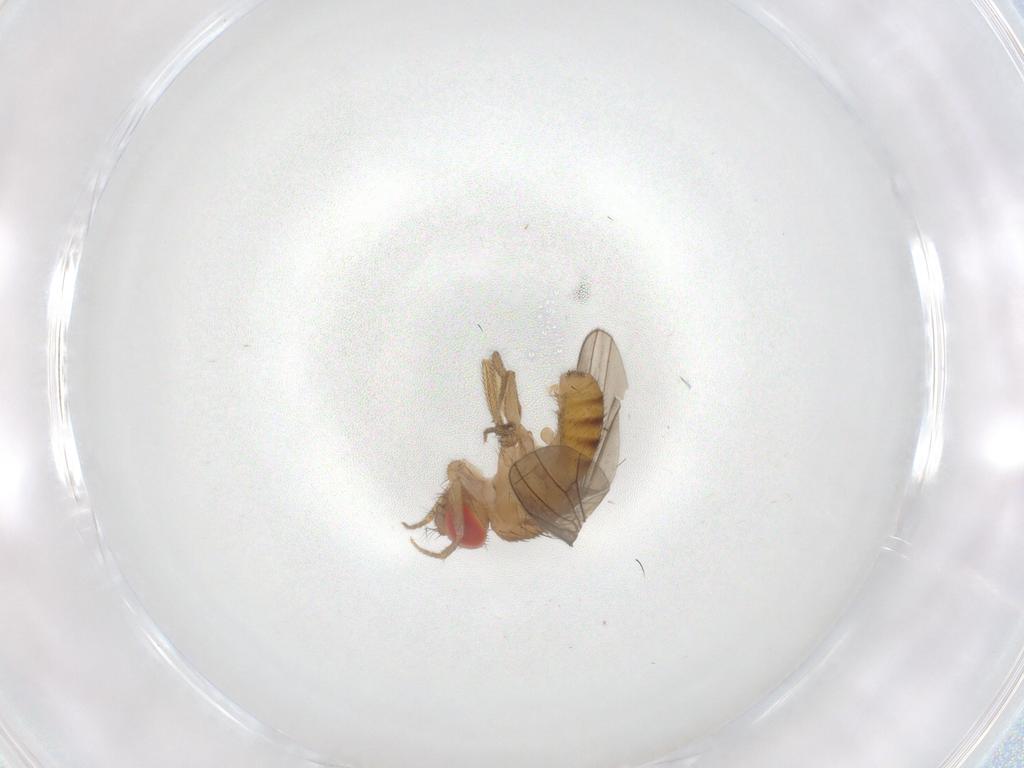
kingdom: Animalia
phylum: Arthropoda
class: Insecta
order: Diptera
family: Drosophilidae
